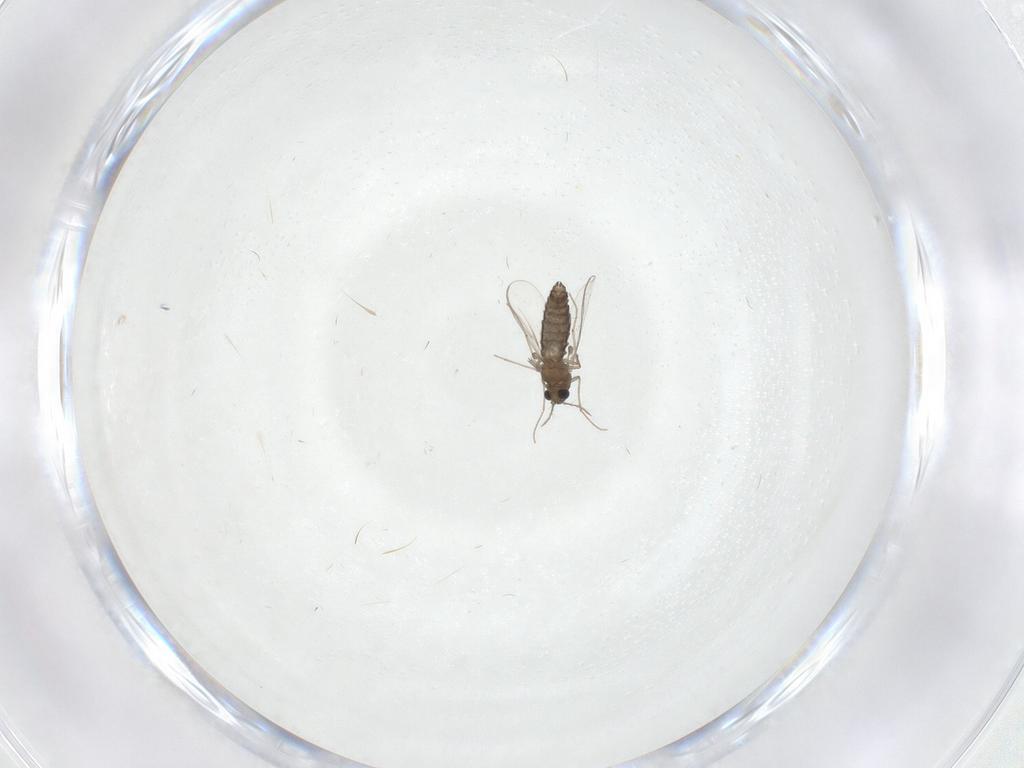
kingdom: Animalia
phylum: Arthropoda
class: Insecta
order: Diptera
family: Chironomidae
